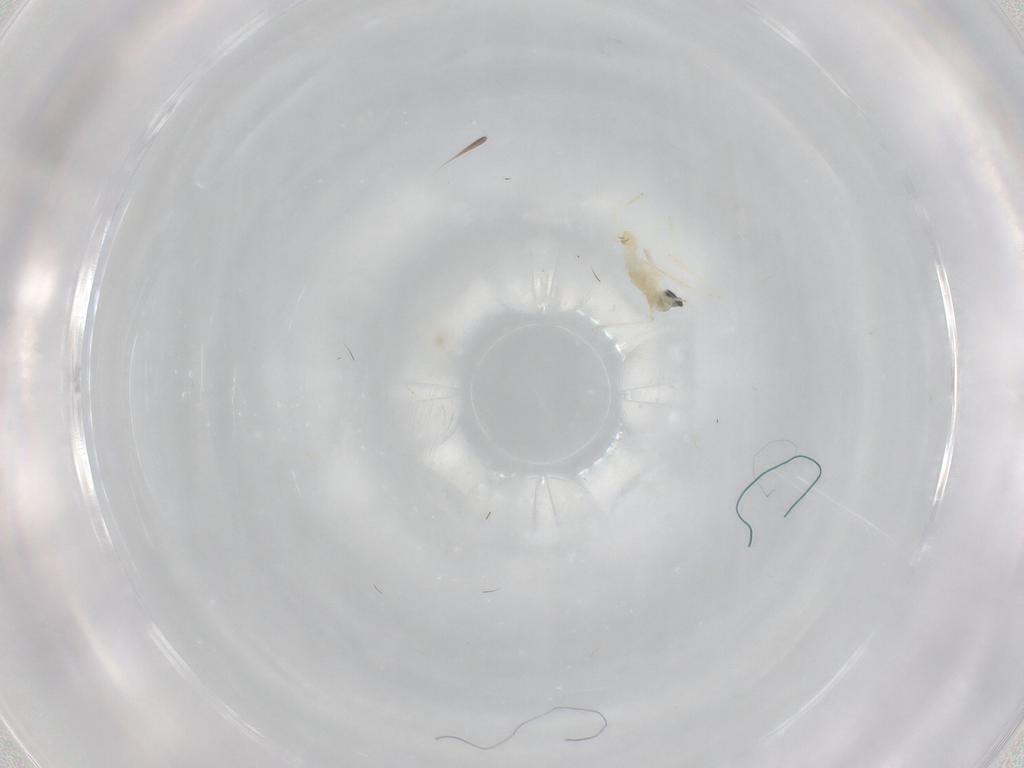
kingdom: Animalia
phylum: Arthropoda
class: Insecta
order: Diptera
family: Cecidomyiidae
